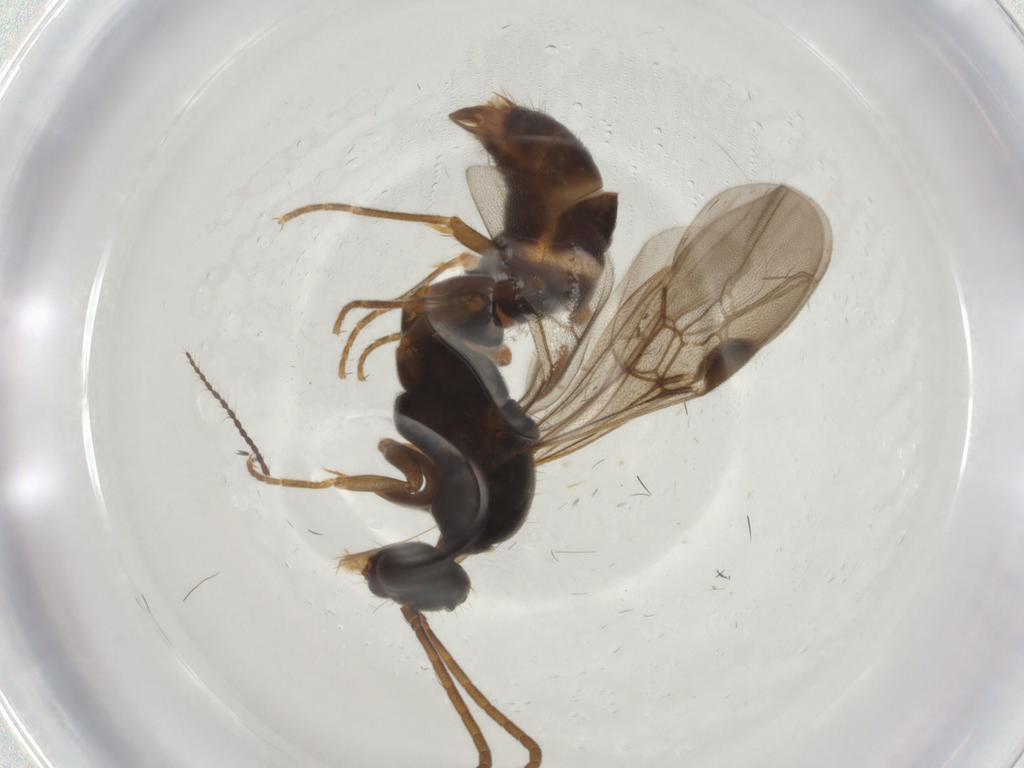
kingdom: Animalia
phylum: Arthropoda
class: Insecta
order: Hymenoptera
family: Formicidae
